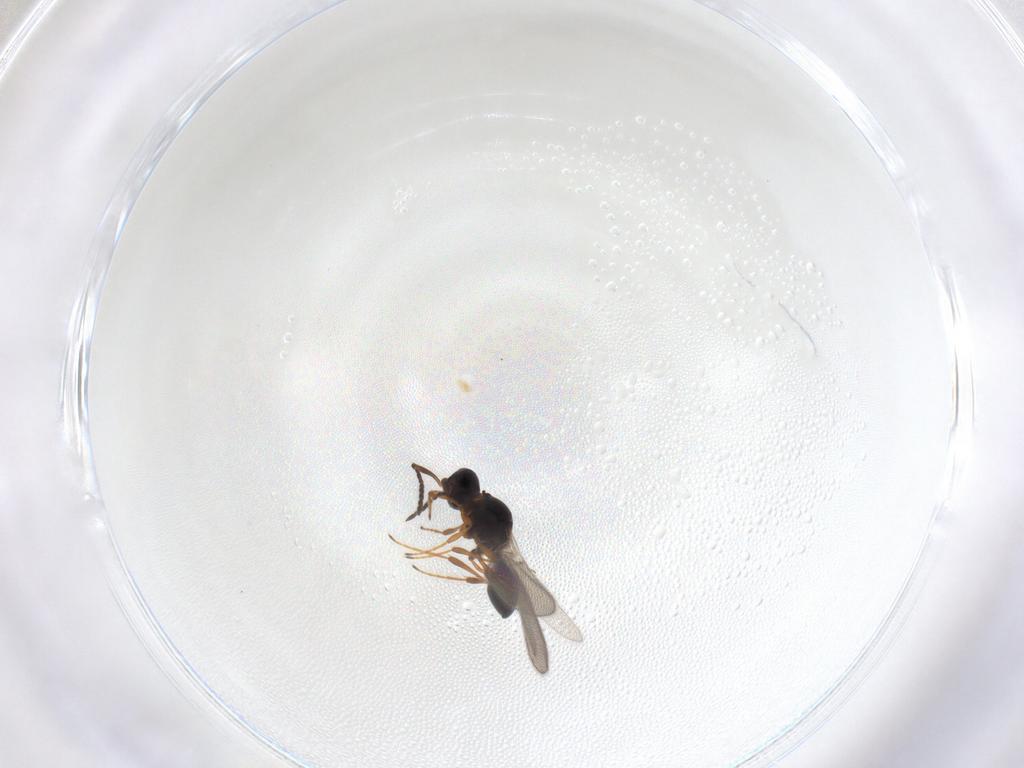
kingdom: Animalia
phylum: Arthropoda
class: Insecta
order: Hymenoptera
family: Platygastridae
